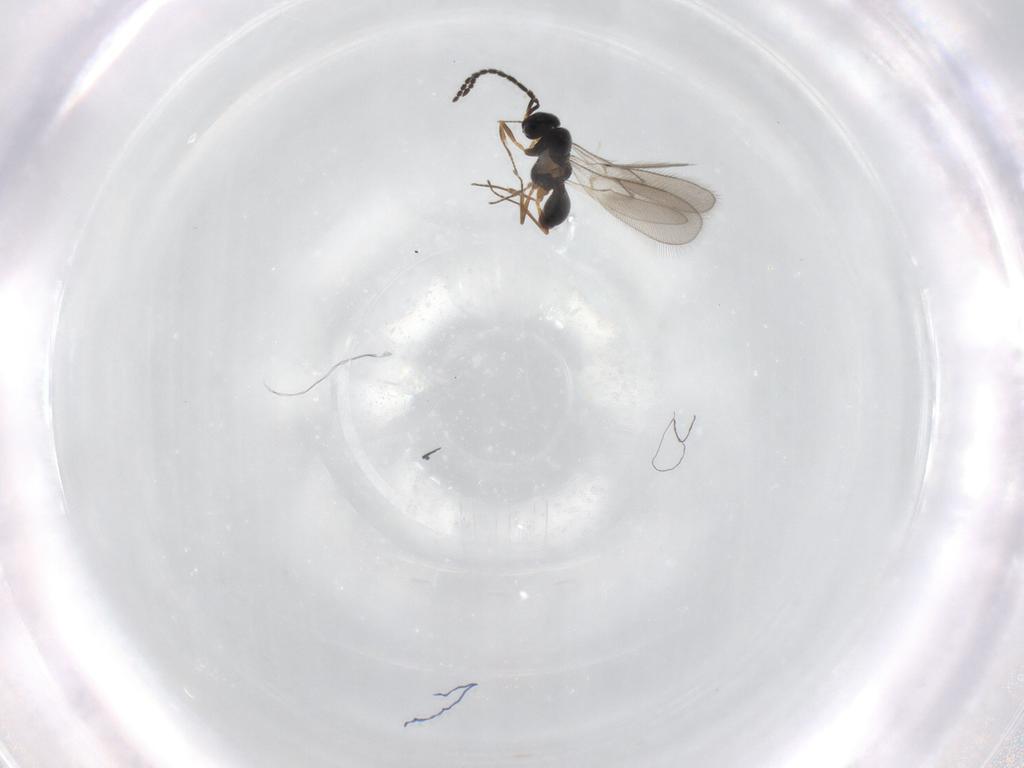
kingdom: Animalia
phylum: Arthropoda
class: Insecta
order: Hymenoptera
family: Scelionidae
